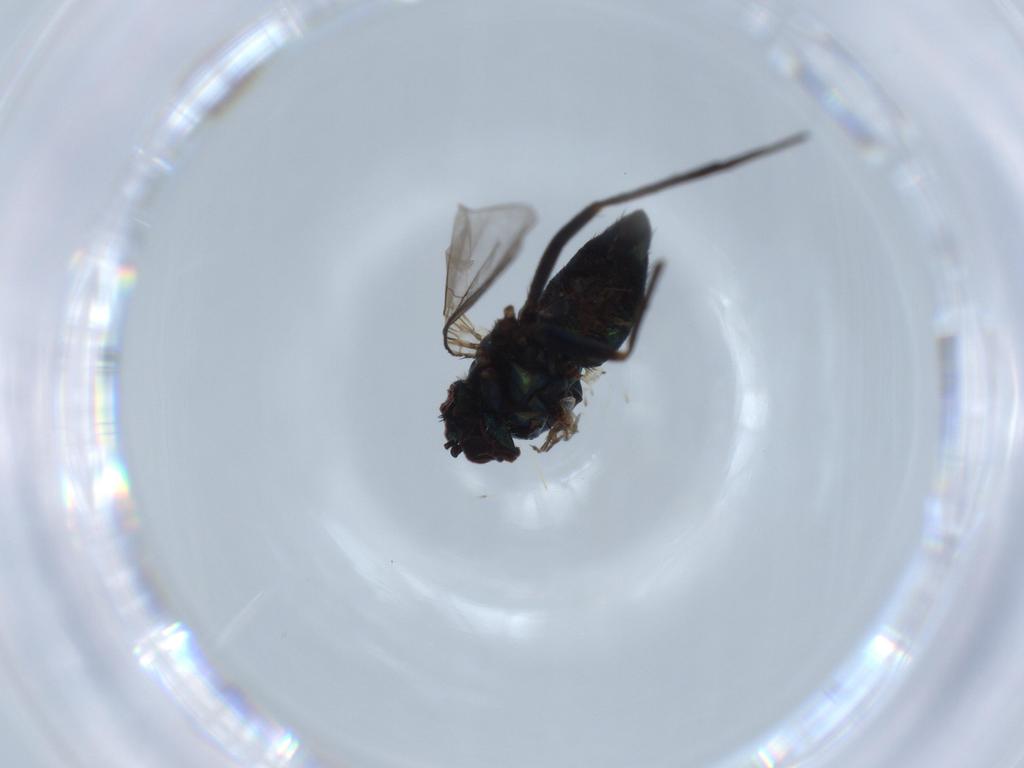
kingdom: Animalia
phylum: Arthropoda
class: Insecta
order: Diptera
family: Dolichopodidae
